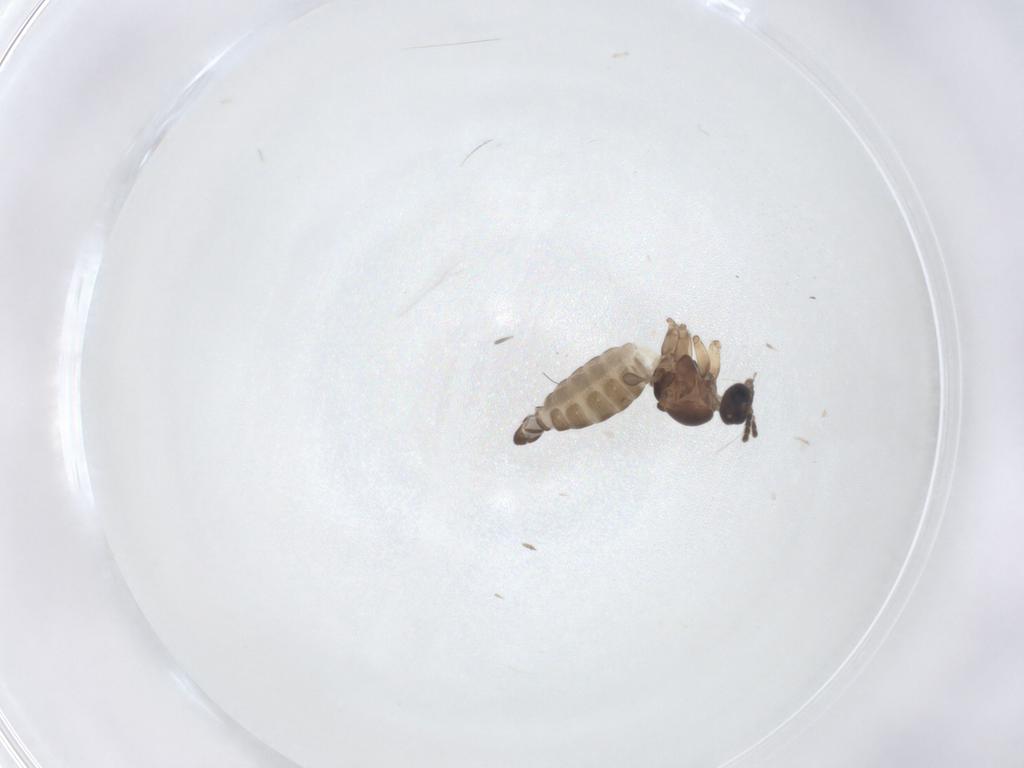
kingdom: Animalia
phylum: Arthropoda
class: Insecta
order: Diptera
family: Sciaridae
